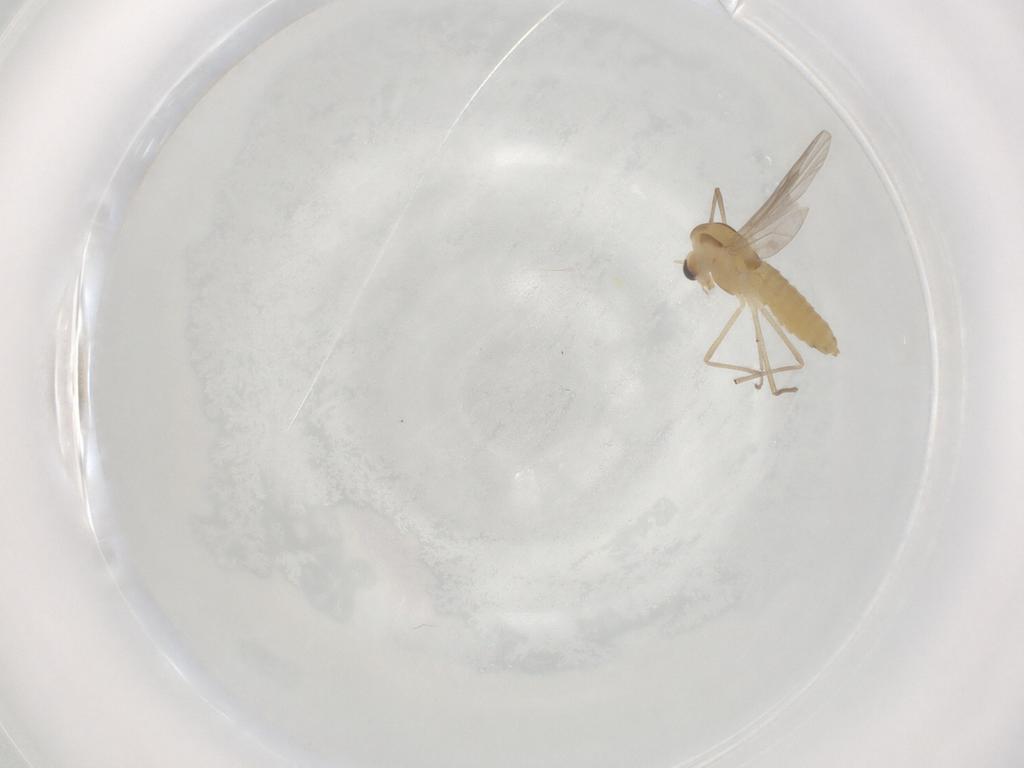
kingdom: Animalia
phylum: Arthropoda
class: Insecta
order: Diptera
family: Chironomidae
